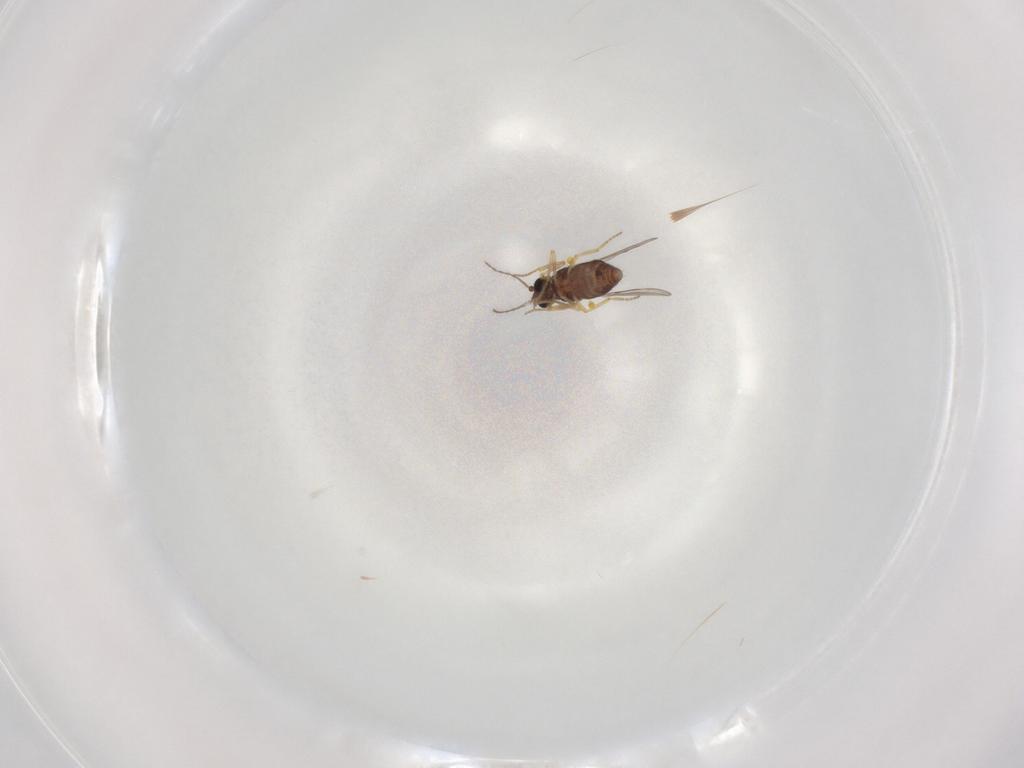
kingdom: Animalia
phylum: Arthropoda
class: Insecta
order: Diptera
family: Ceratopogonidae
